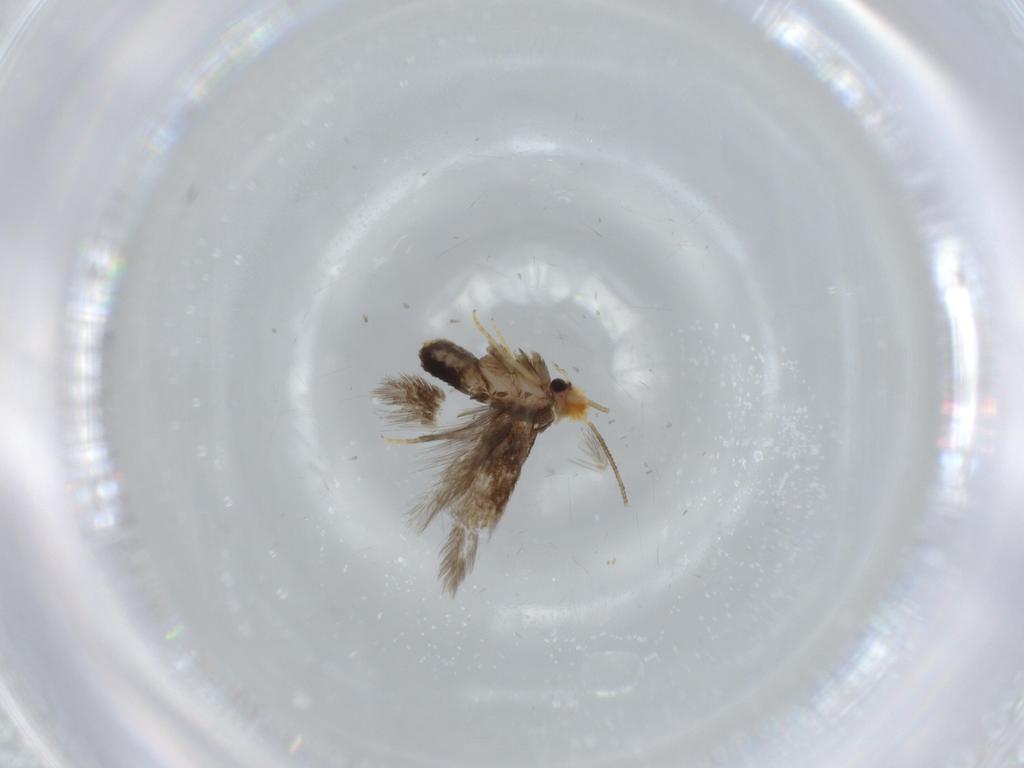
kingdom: Animalia
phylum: Arthropoda
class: Insecta
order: Lepidoptera
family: Nepticulidae
